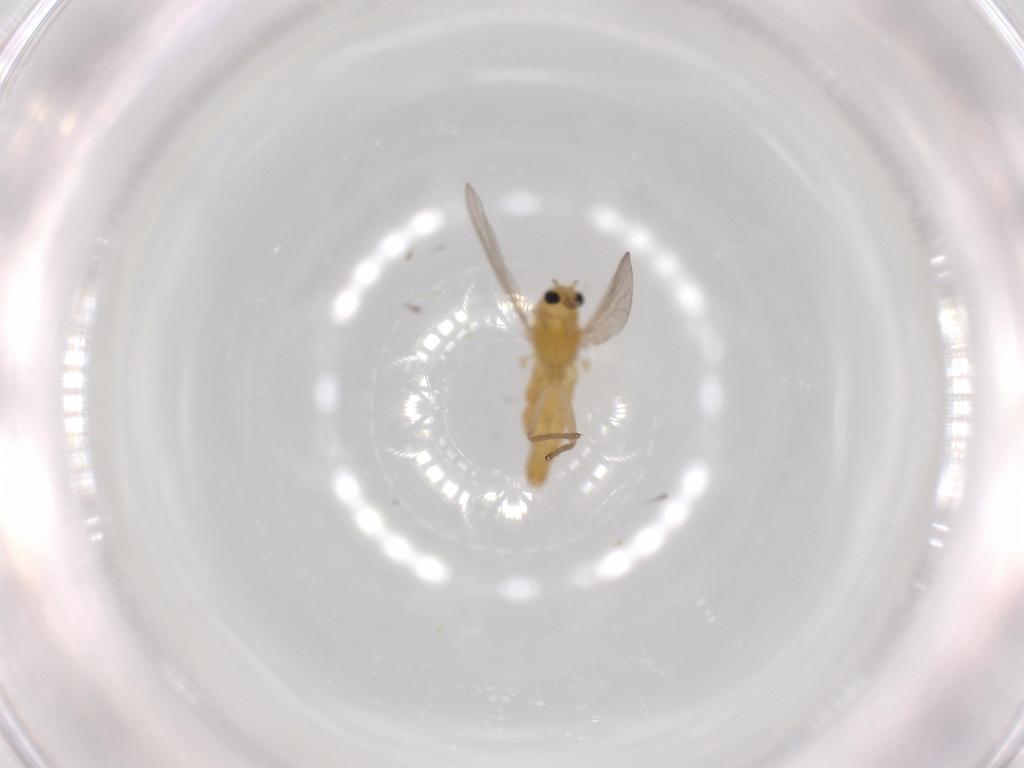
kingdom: Animalia
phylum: Arthropoda
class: Insecta
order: Diptera
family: Chironomidae
